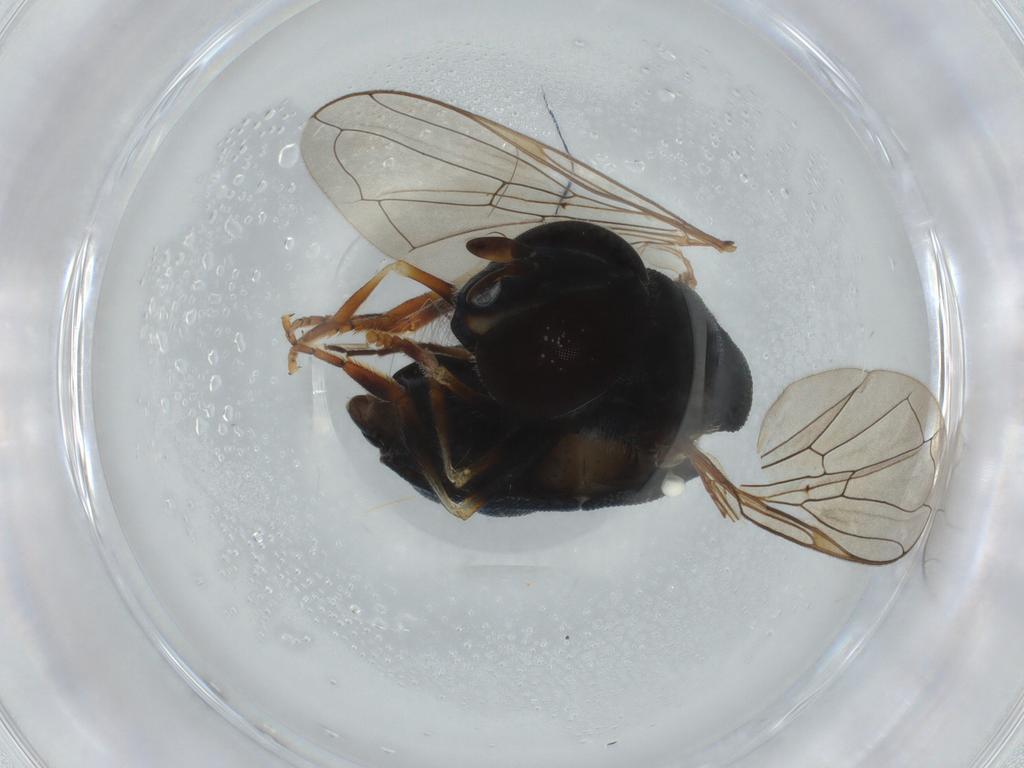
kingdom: Animalia
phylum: Arthropoda
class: Insecta
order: Diptera
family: Syrphidae
